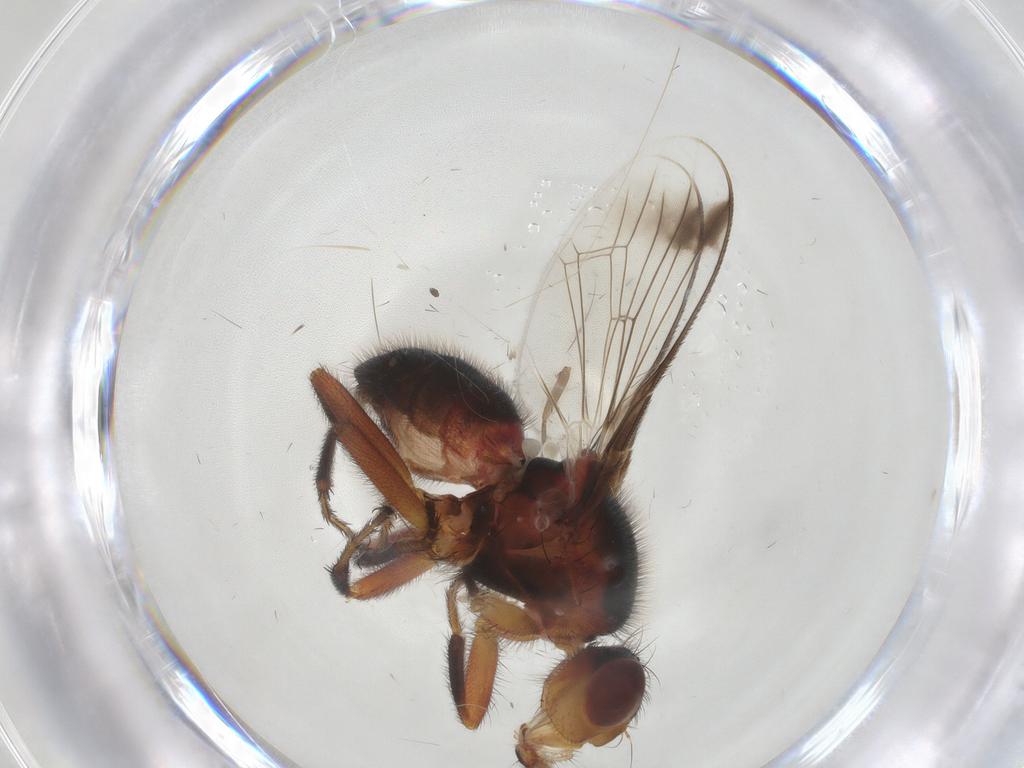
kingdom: Animalia
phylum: Arthropoda
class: Insecta
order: Diptera
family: Richardiidae
